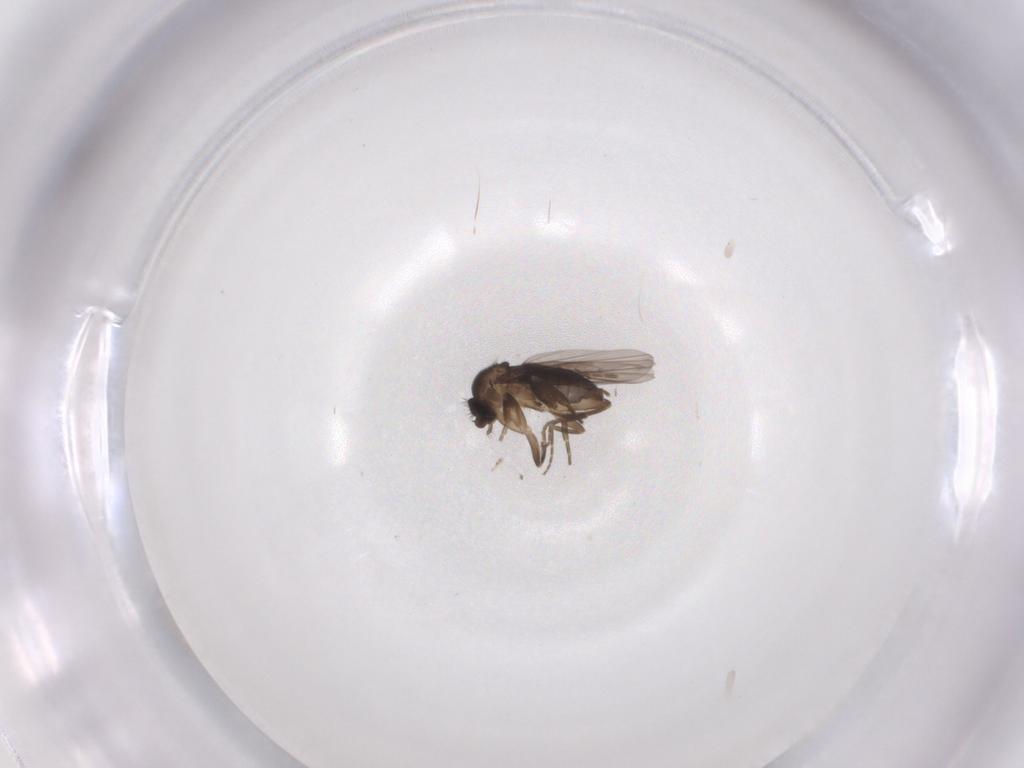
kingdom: Animalia
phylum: Arthropoda
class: Insecta
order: Diptera
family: Phoridae
